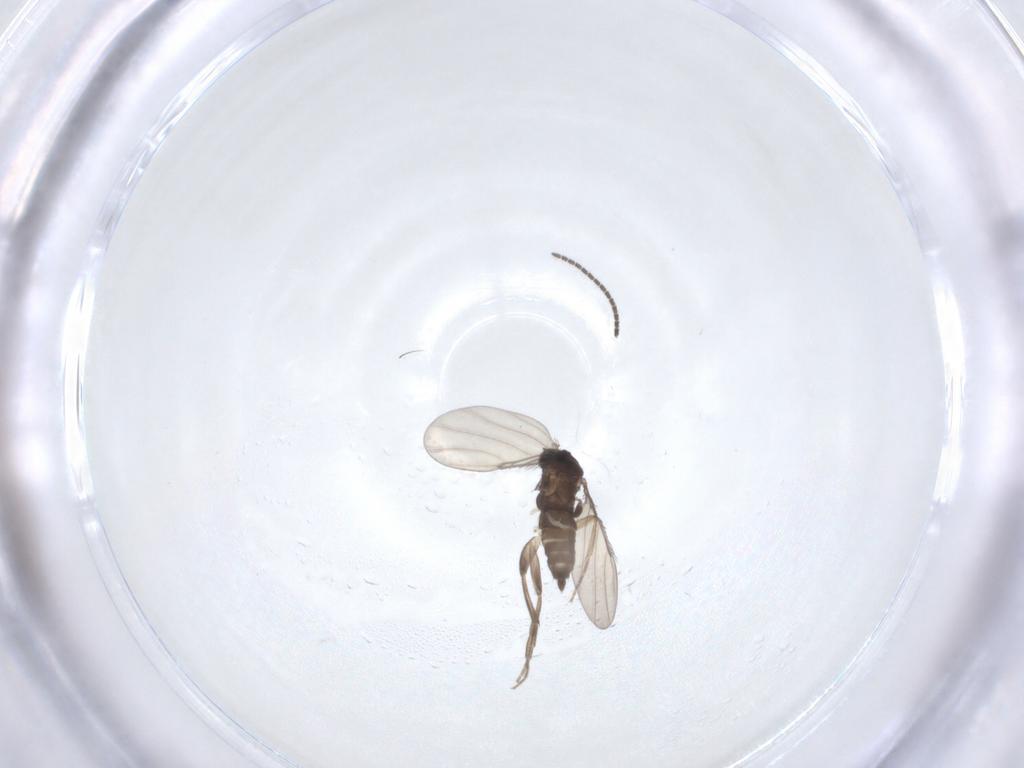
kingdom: Animalia
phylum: Arthropoda
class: Insecta
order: Diptera
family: Phoridae
